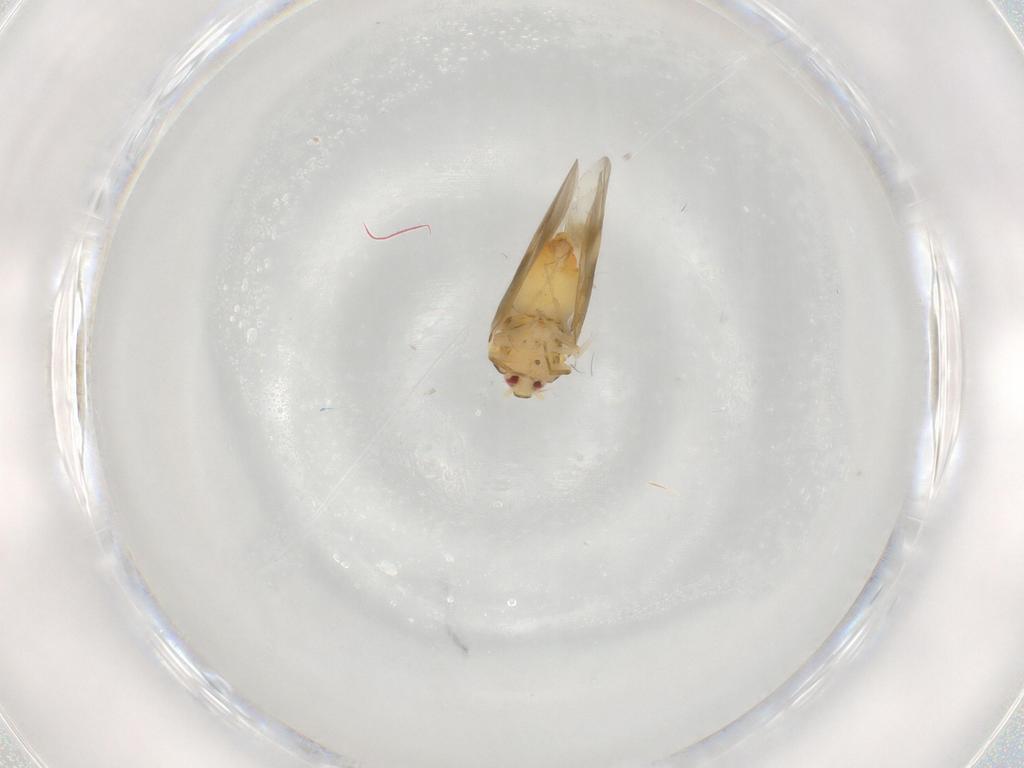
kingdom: Animalia
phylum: Arthropoda
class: Insecta
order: Hemiptera
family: Aleyrodidae
